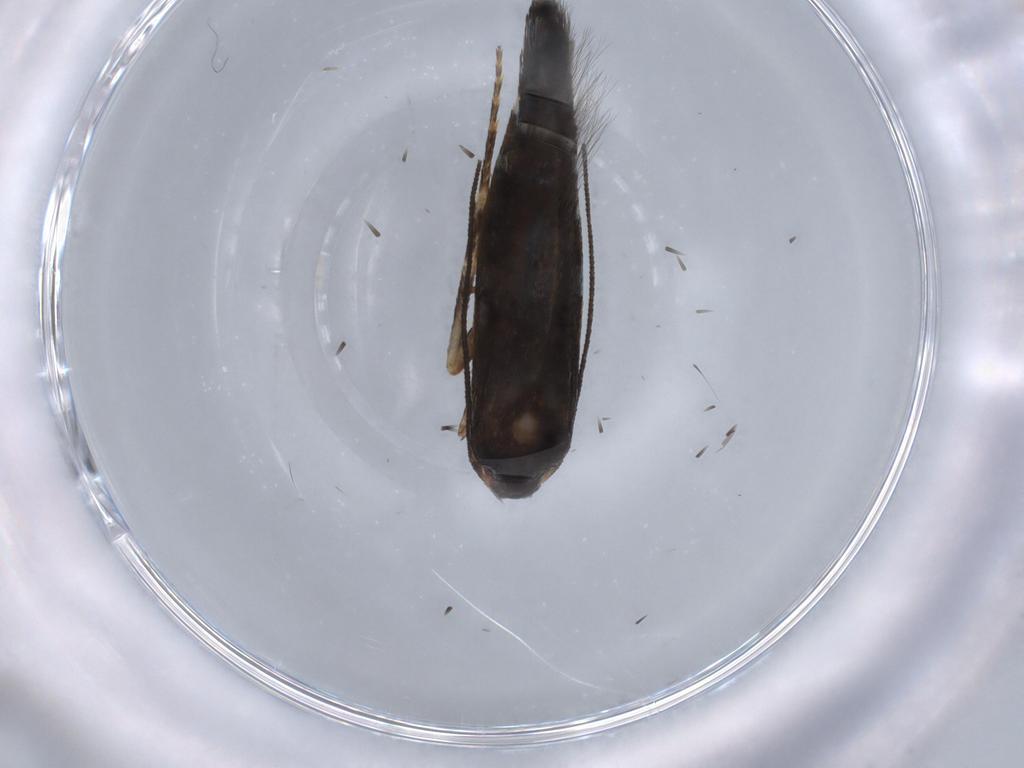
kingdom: Animalia
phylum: Arthropoda
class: Insecta
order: Lepidoptera
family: Depressariidae
